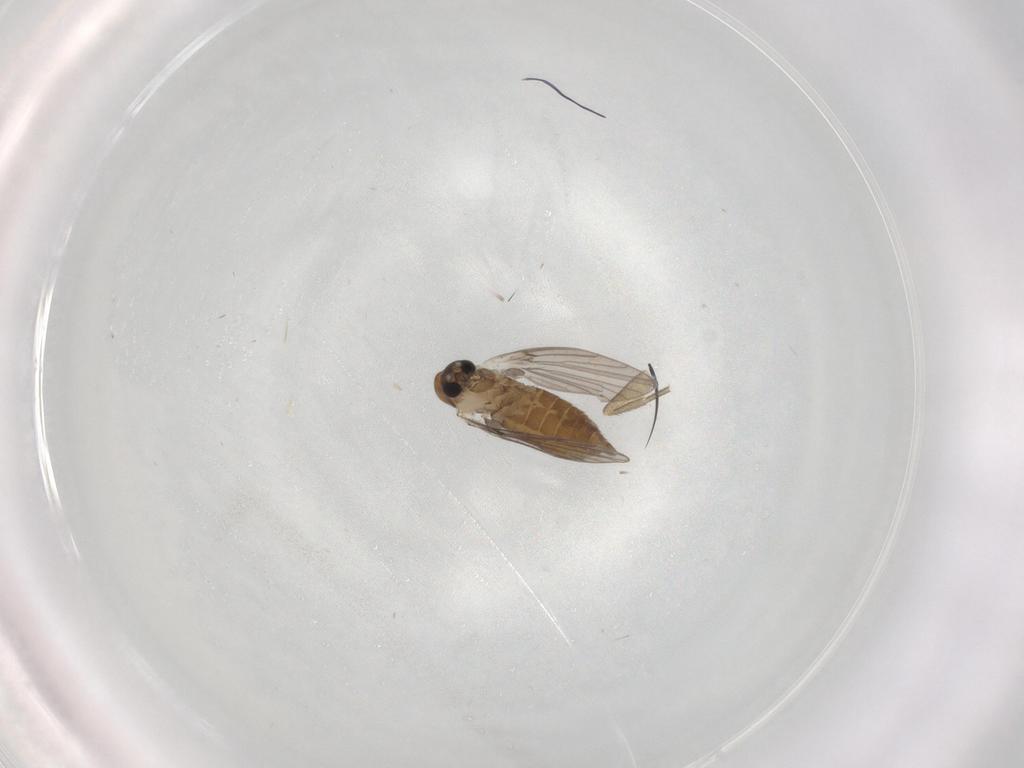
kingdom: Animalia
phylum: Arthropoda
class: Insecta
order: Diptera
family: Phoridae
